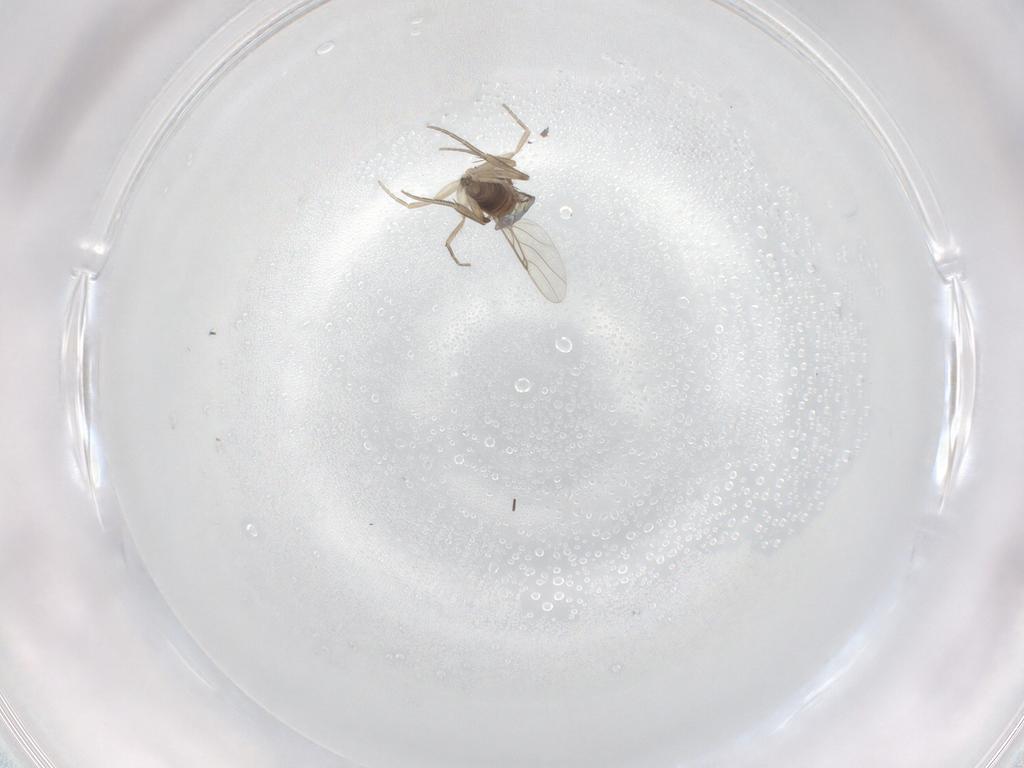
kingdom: Animalia
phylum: Arthropoda
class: Insecta
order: Diptera
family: Phoridae
